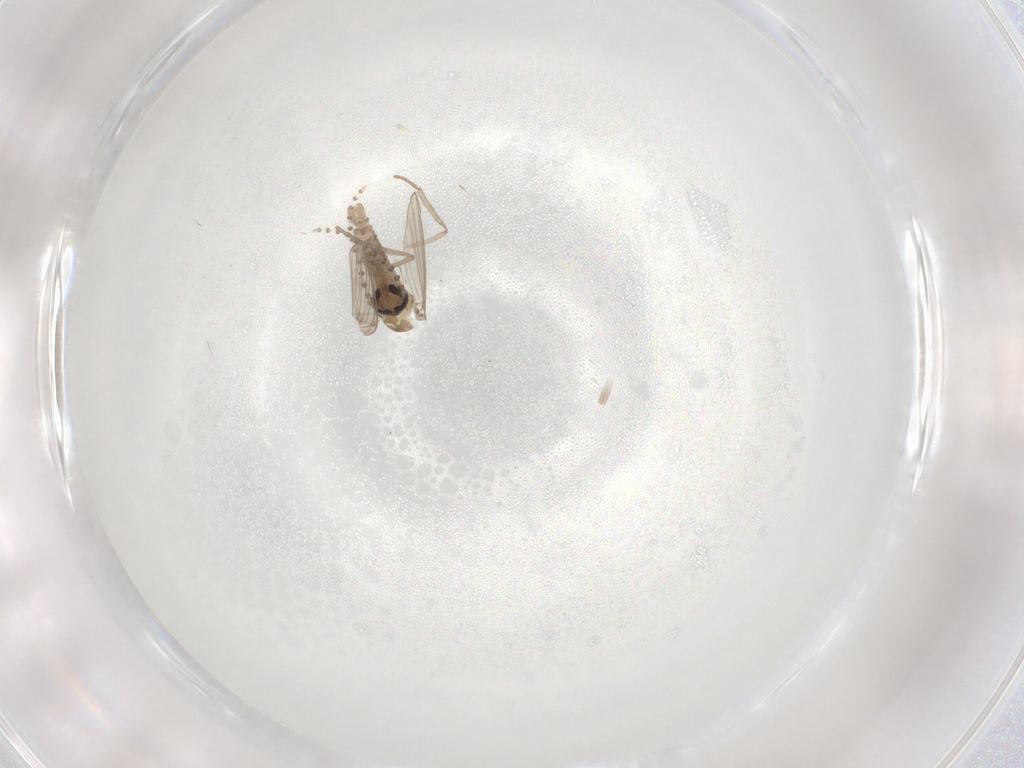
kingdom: Animalia
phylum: Arthropoda
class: Insecta
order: Diptera
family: Psychodidae
